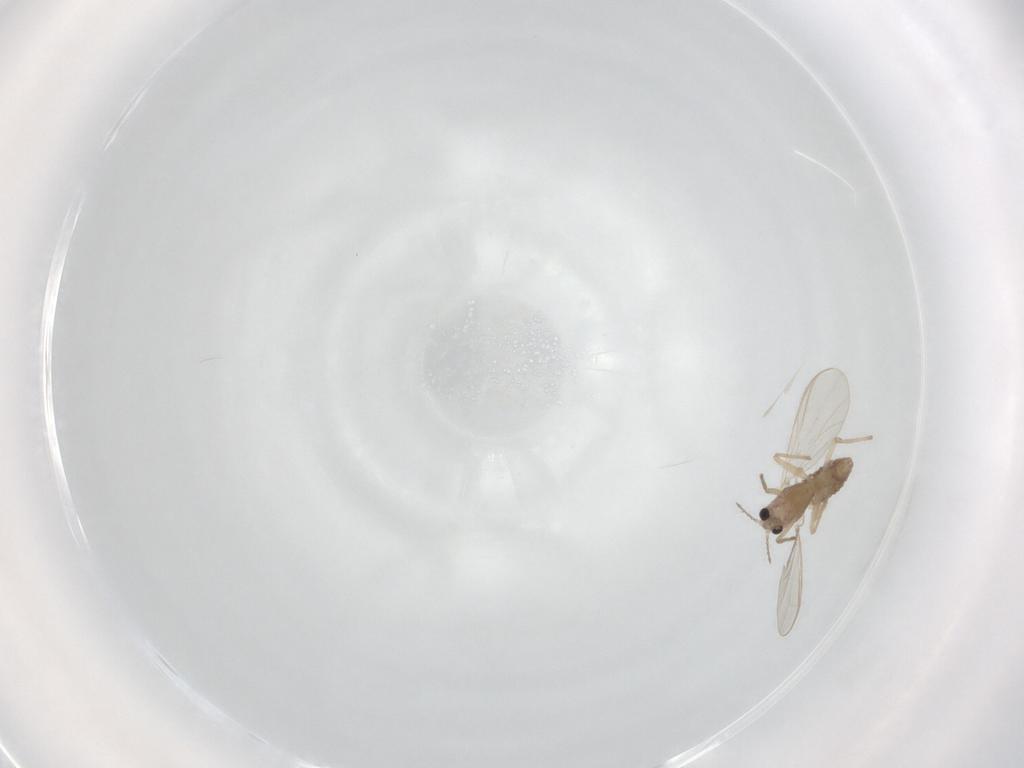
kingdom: Animalia
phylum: Arthropoda
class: Insecta
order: Diptera
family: Chironomidae
